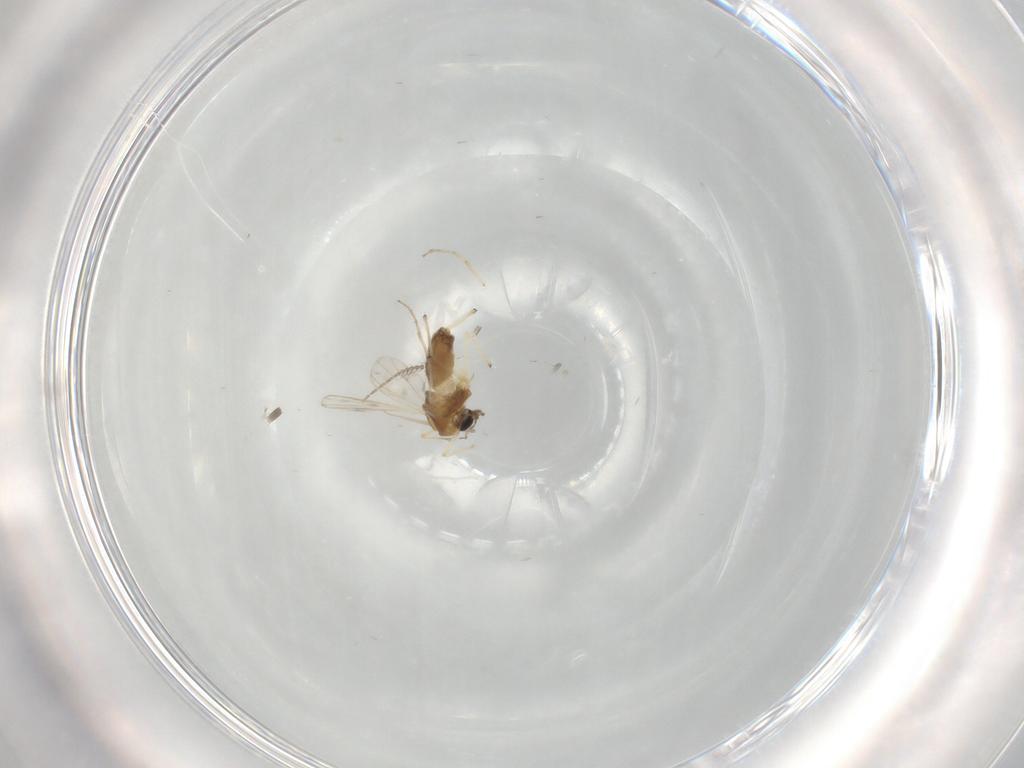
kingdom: Animalia
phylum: Arthropoda
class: Insecta
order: Diptera
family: Chironomidae
